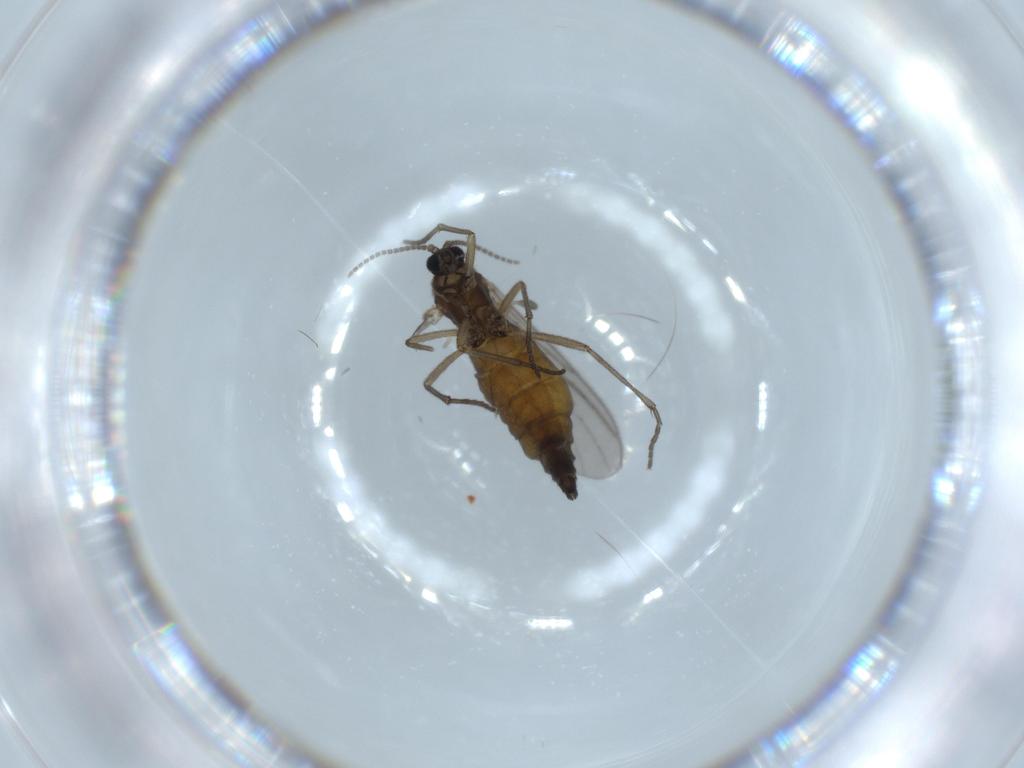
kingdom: Animalia
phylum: Arthropoda
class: Insecta
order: Diptera
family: Sciaridae
